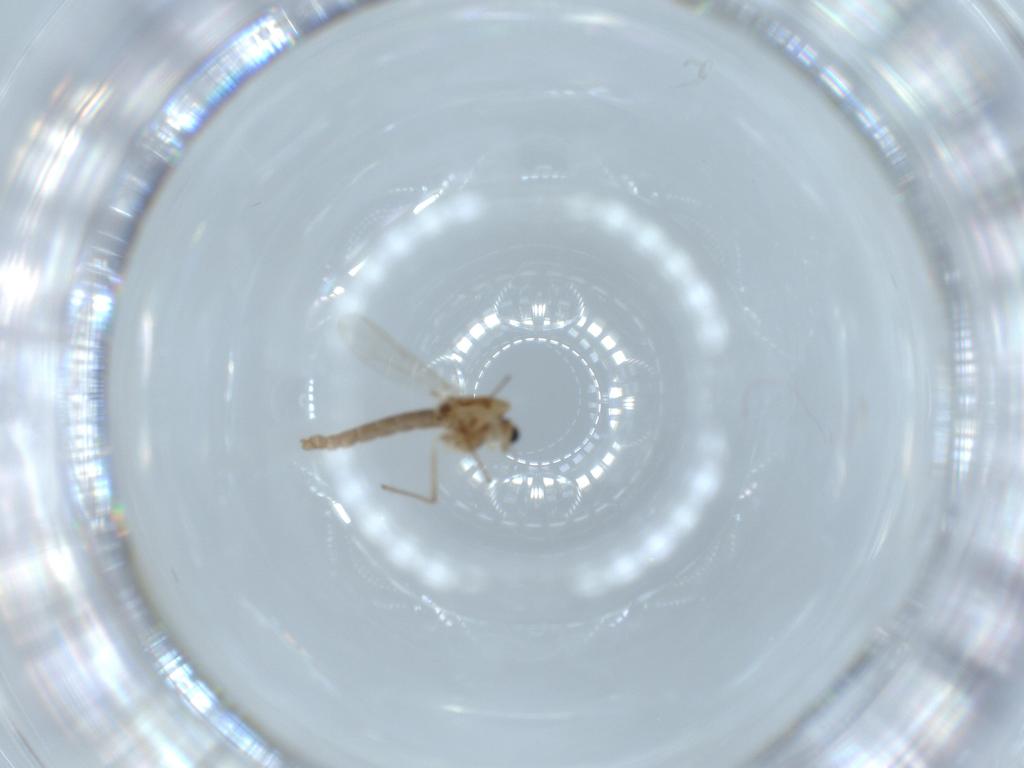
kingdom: Animalia
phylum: Arthropoda
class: Insecta
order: Diptera
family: Chironomidae
